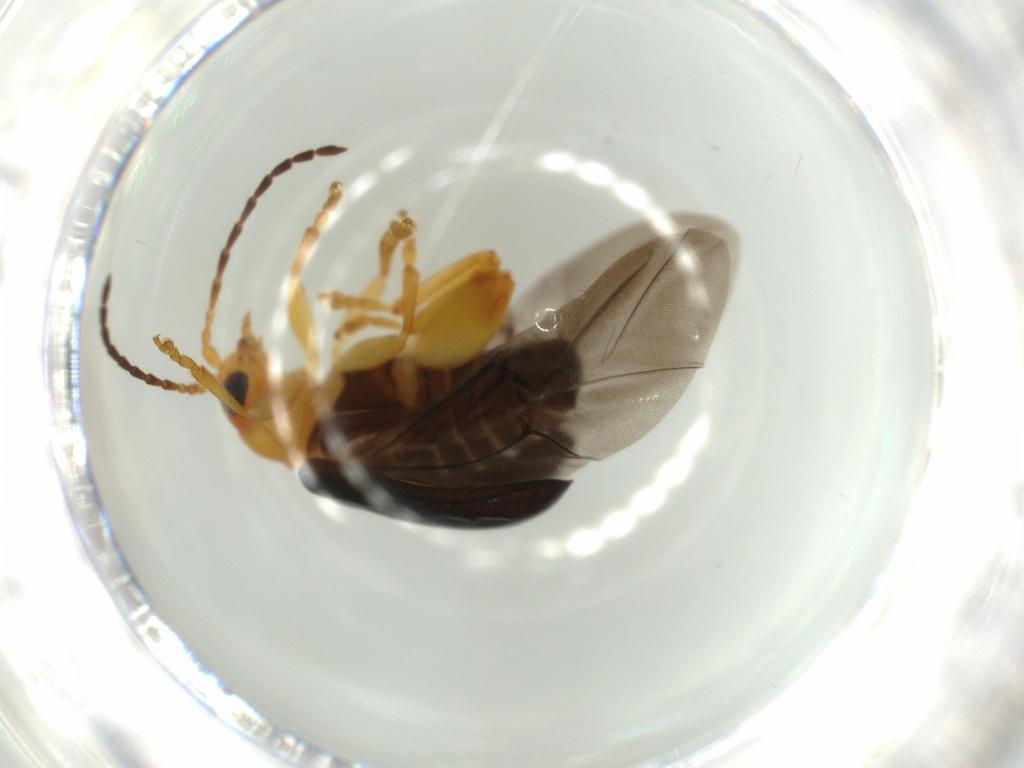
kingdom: Animalia
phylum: Arthropoda
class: Insecta
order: Coleoptera
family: Chrysomelidae
